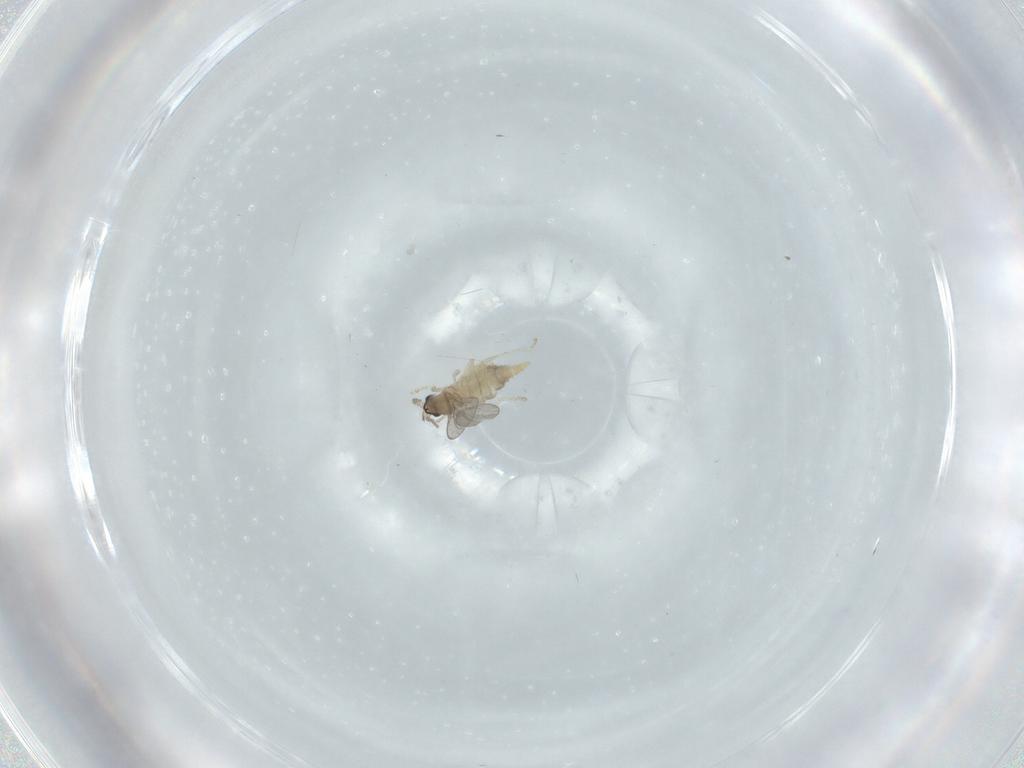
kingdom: Animalia
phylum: Arthropoda
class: Insecta
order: Diptera
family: Cecidomyiidae
